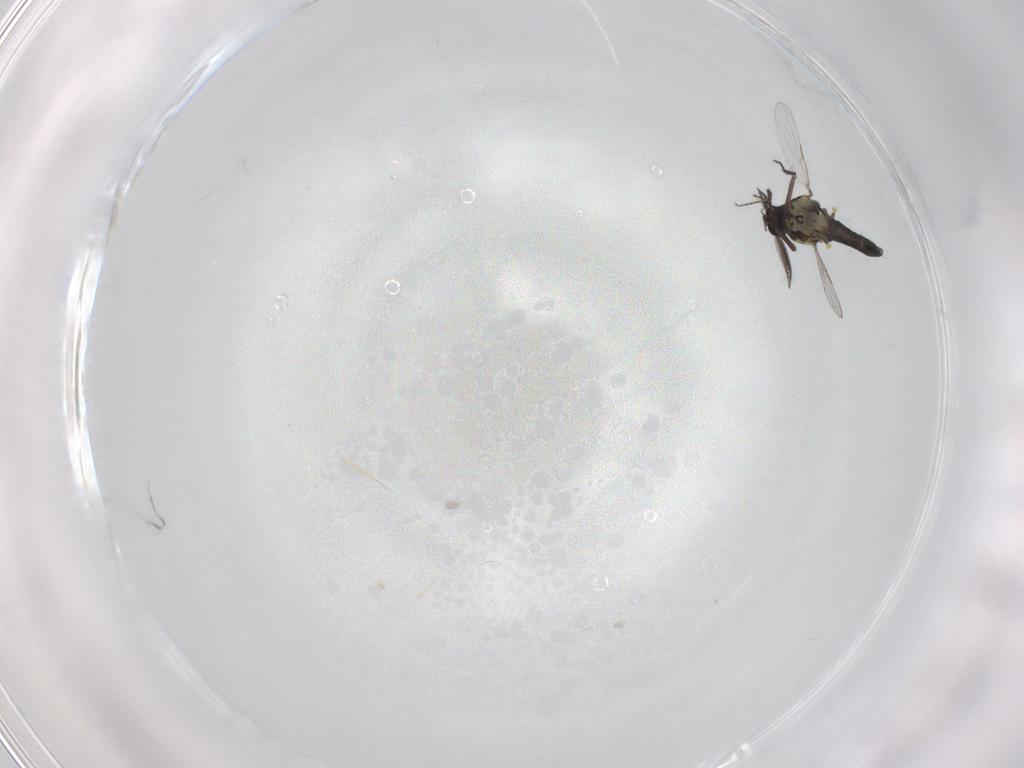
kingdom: Animalia
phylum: Arthropoda
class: Insecta
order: Diptera
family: Ceratopogonidae
